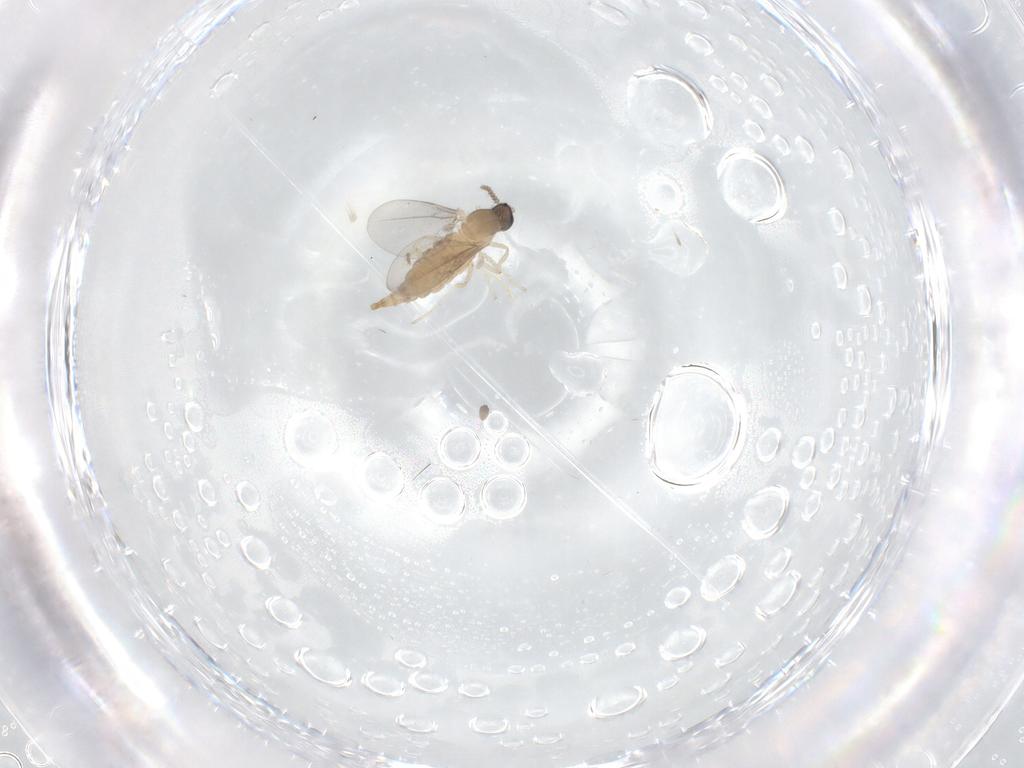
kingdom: Animalia
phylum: Arthropoda
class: Insecta
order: Diptera
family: Cecidomyiidae
